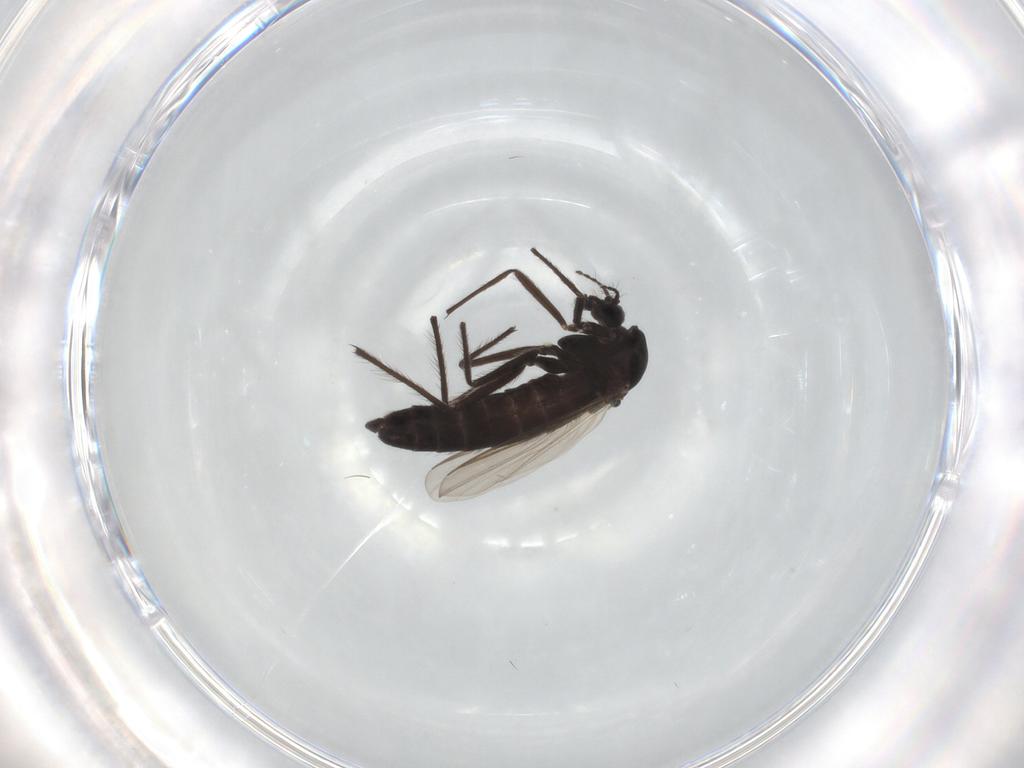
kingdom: Animalia
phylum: Arthropoda
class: Insecta
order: Diptera
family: Chironomidae
